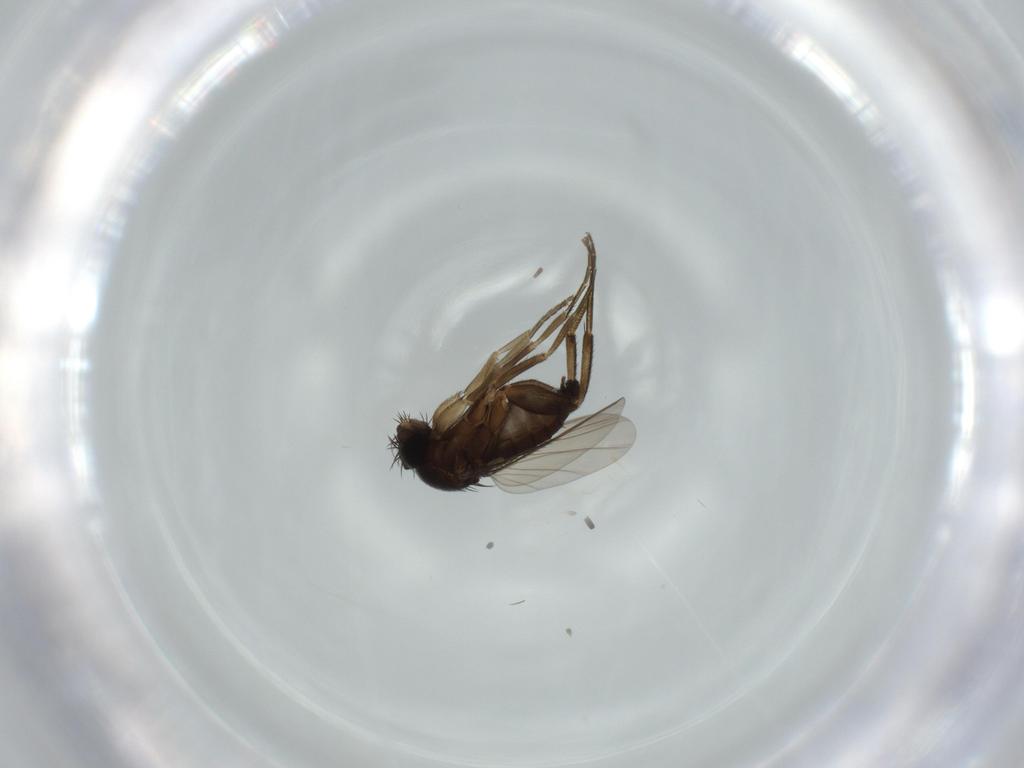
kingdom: Animalia
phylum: Arthropoda
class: Insecta
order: Diptera
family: Phoridae
